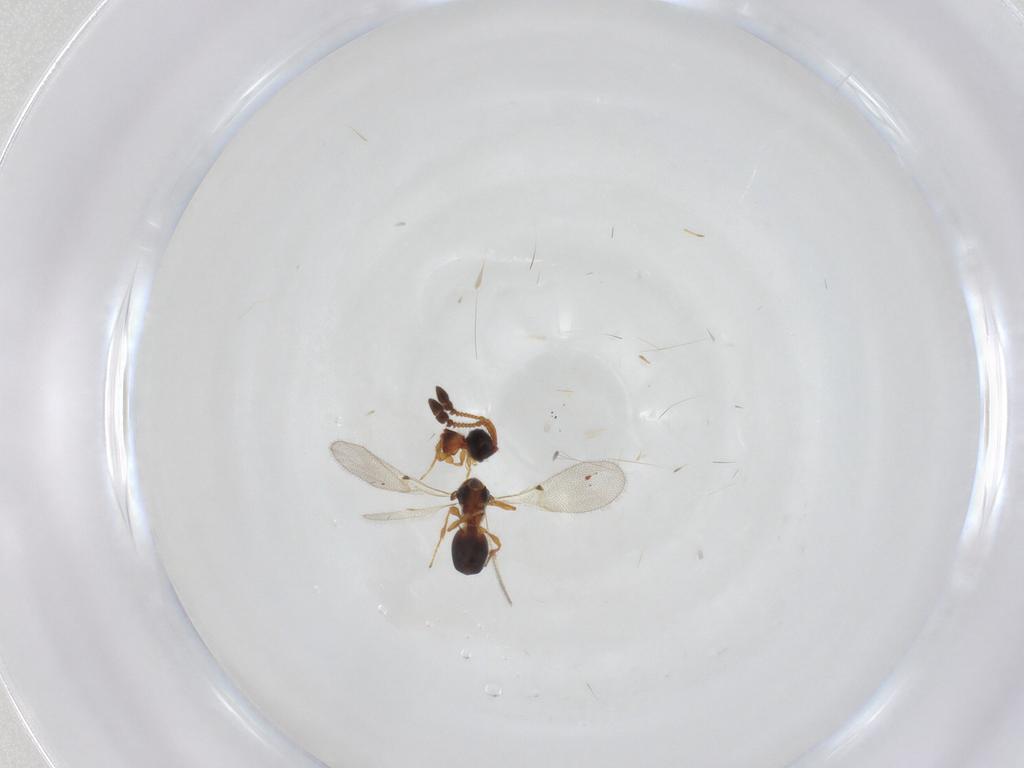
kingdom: Animalia
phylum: Arthropoda
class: Insecta
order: Hymenoptera
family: Diapriidae
